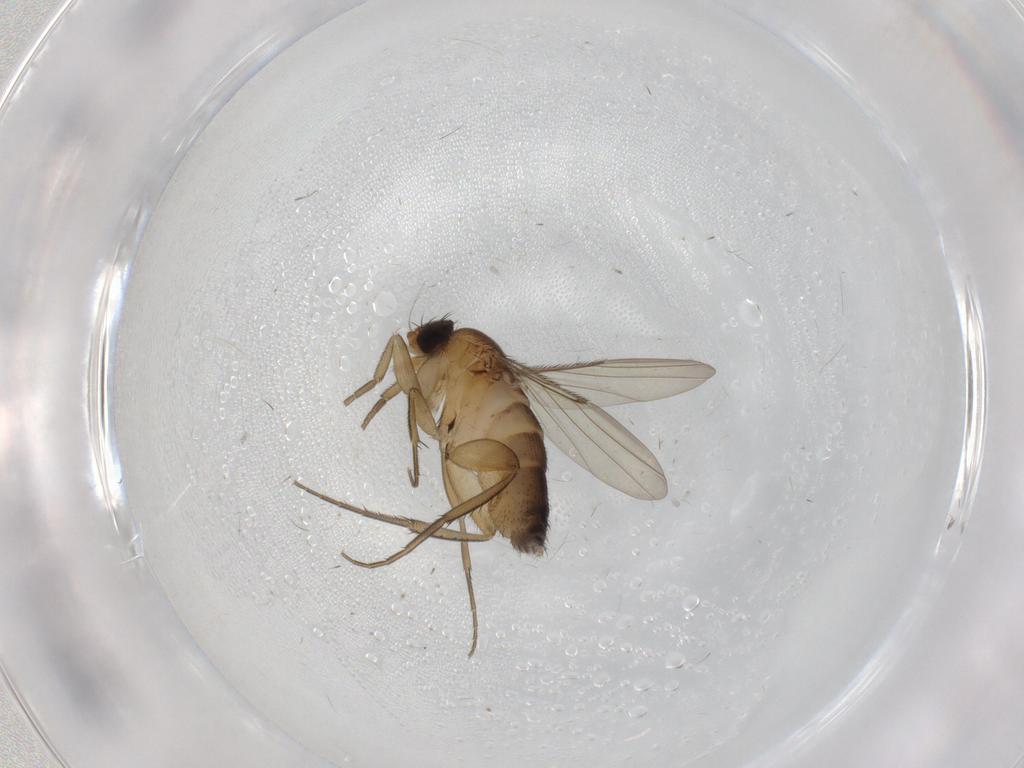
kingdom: Animalia
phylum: Arthropoda
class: Insecta
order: Diptera
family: Phoridae
